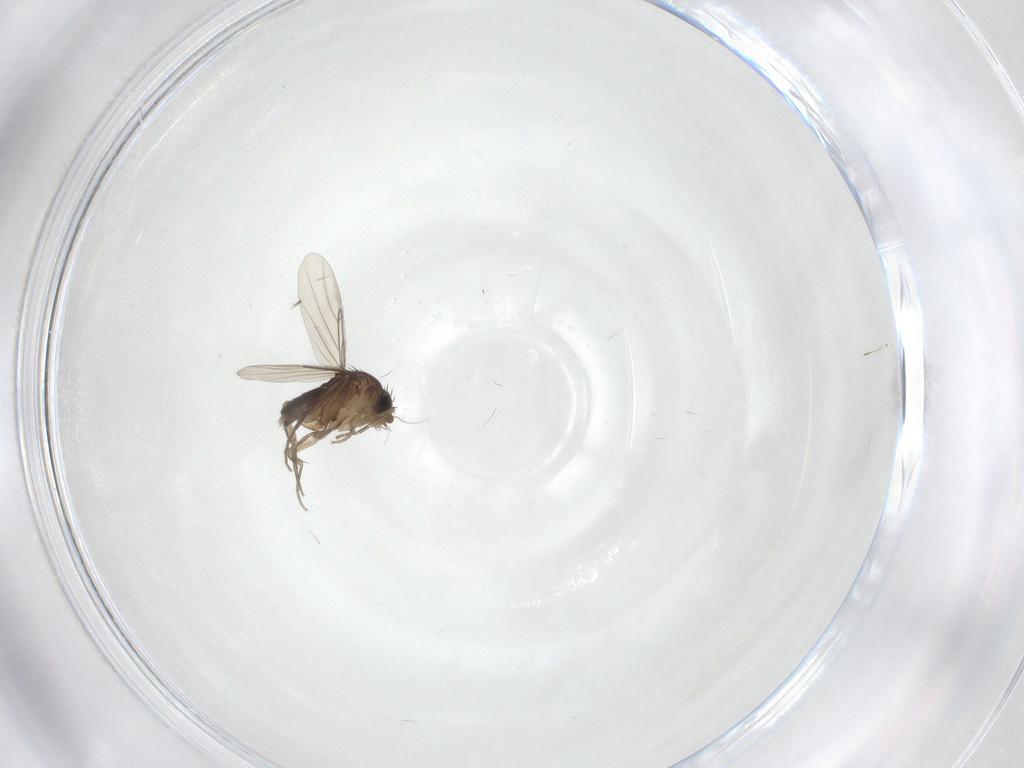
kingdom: Animalia
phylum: Arthropoda
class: Insecta
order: Diptera
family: Phoridae
